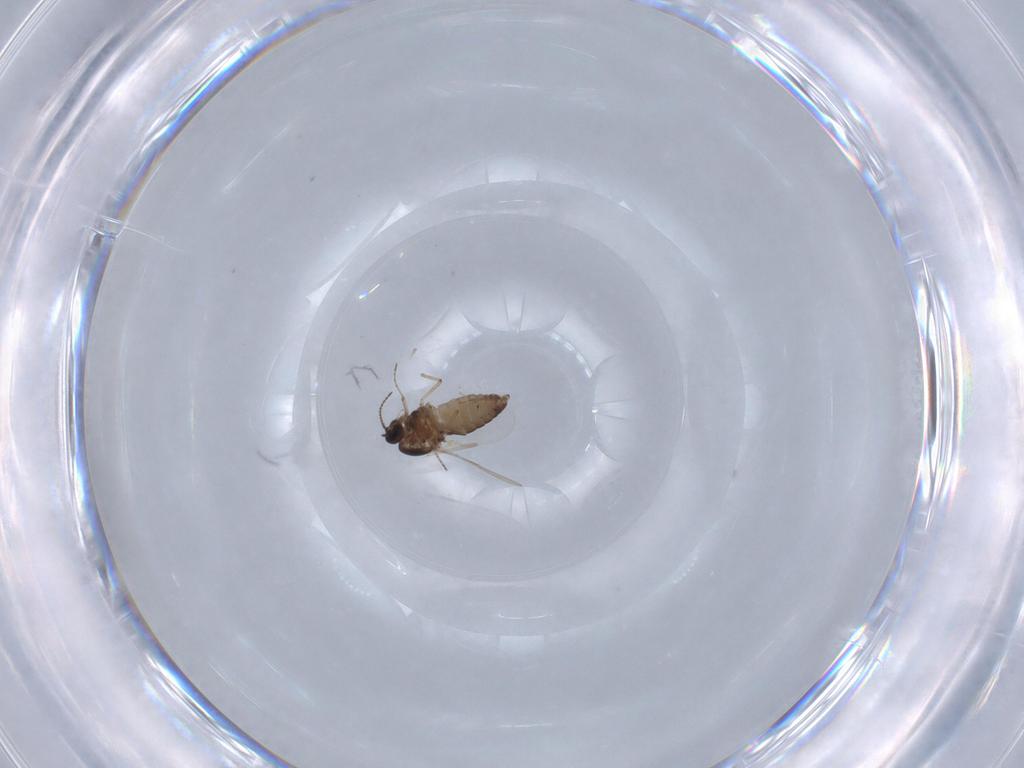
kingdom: Animalia
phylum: Arthropoda
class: Insecta
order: Diptera
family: Ceratopogonidae
